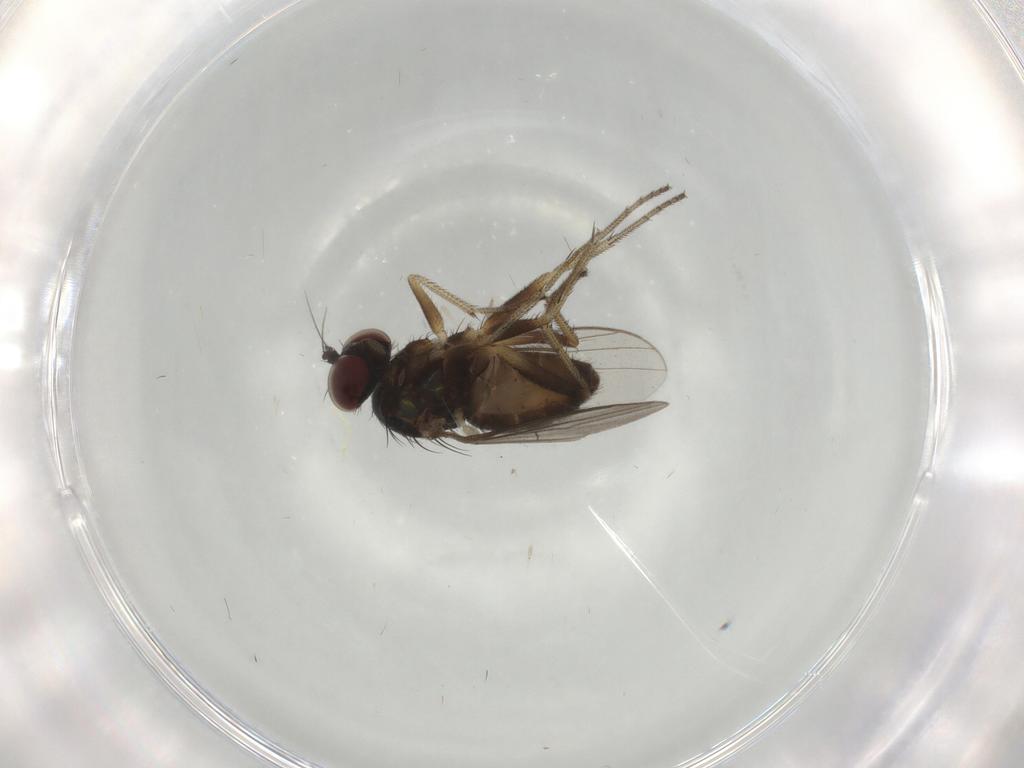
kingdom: Animalia
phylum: Arthropoda
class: Insecta
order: Diptera
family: Dolichopodidae
